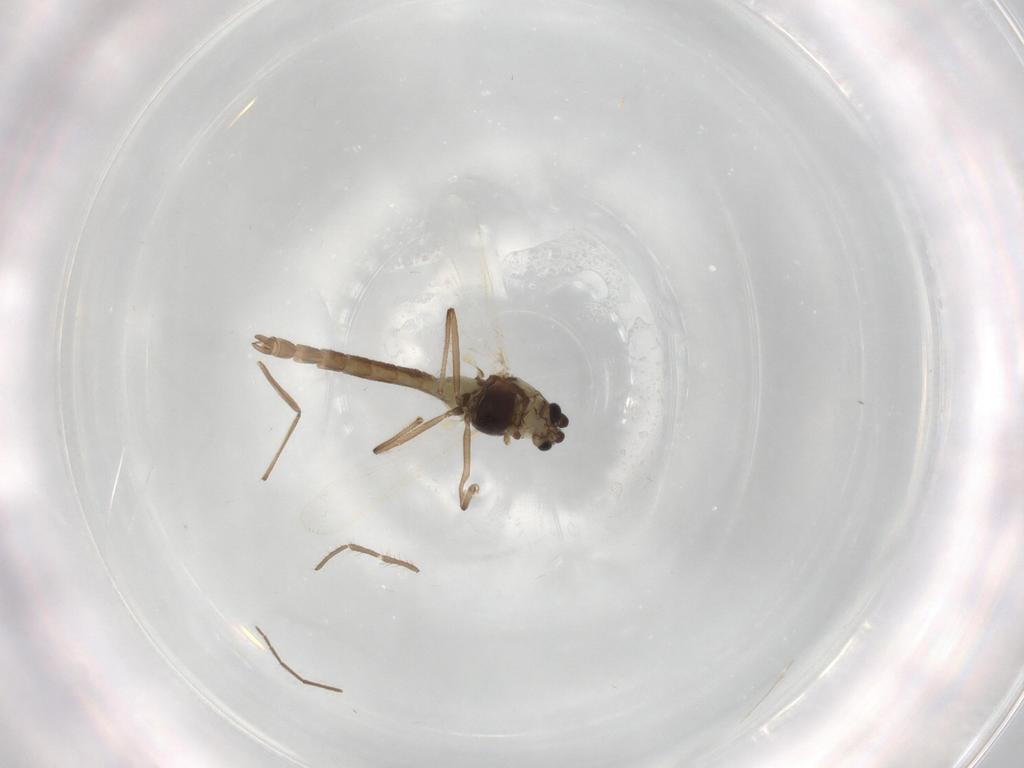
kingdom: Animalia
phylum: Arthropoda
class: Insecta
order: Diptera
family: Chironomidae
